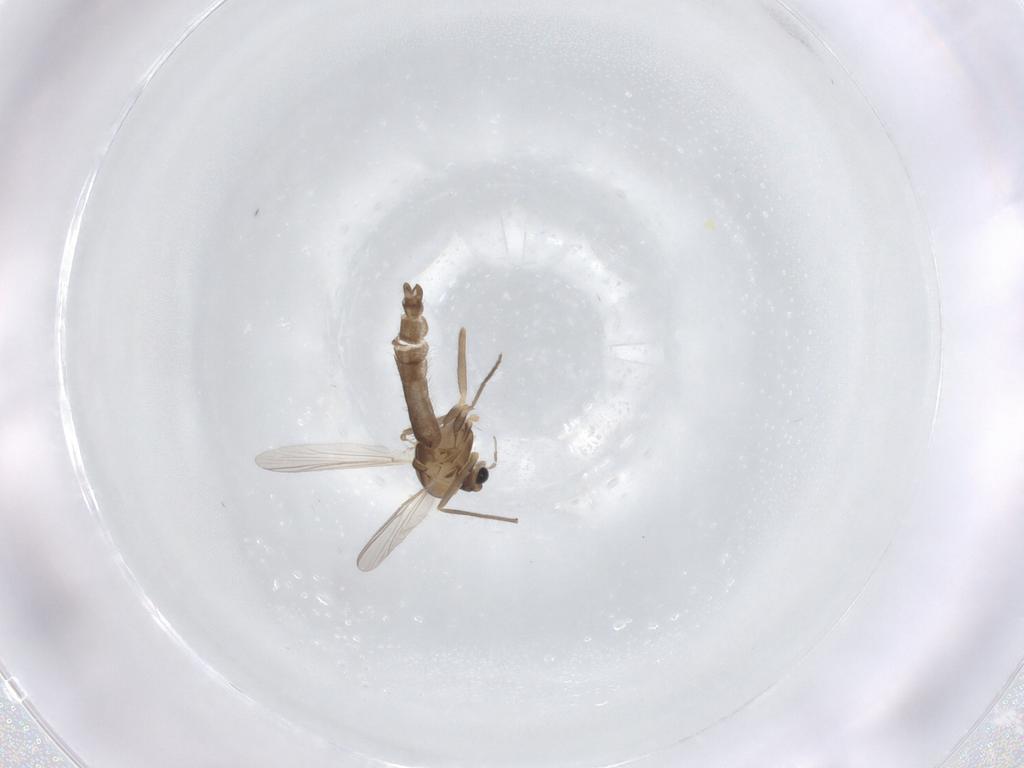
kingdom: Animalia
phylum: Arthropoda
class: Insecta
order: Diptera
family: Chironomidae
